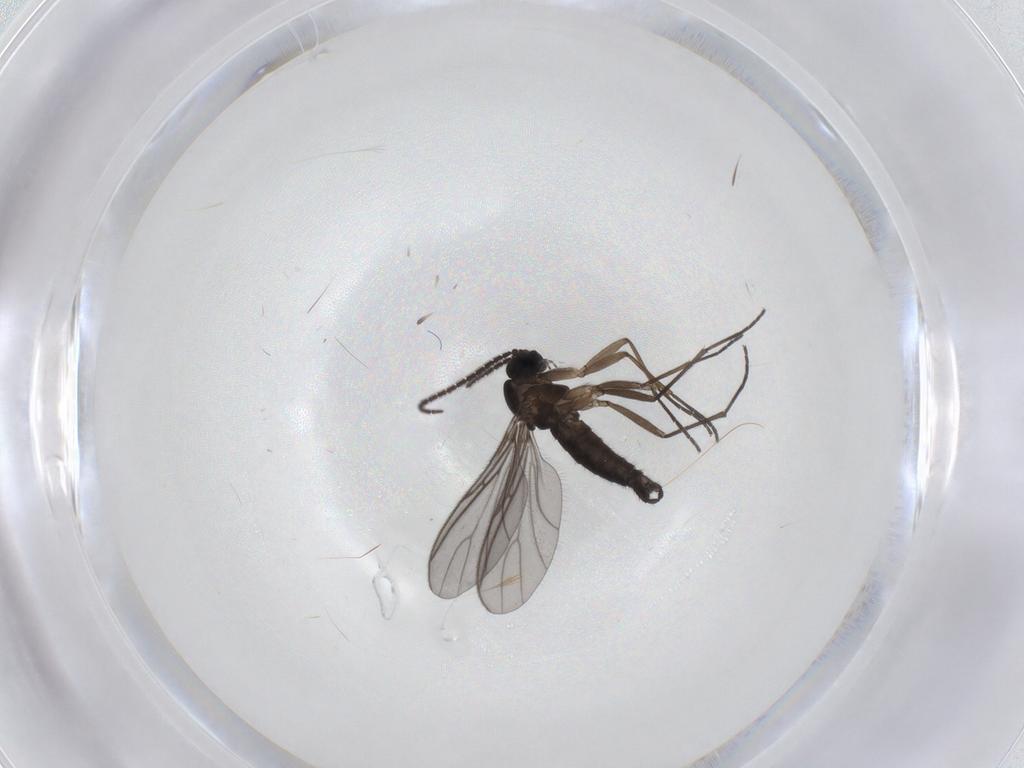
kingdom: Animalia
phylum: Arthropoda
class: Insecta
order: Diptera
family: Sciaridae
